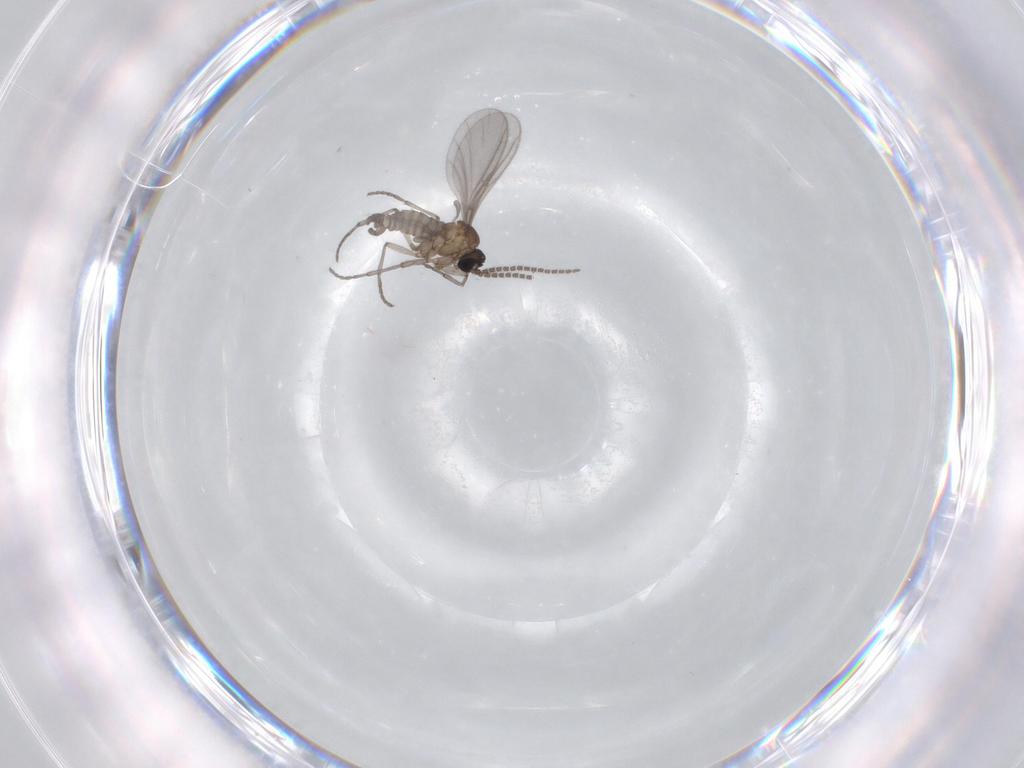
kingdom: Animalia
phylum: Arthropoda
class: Insecta
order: Diptera
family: Sciaridae
